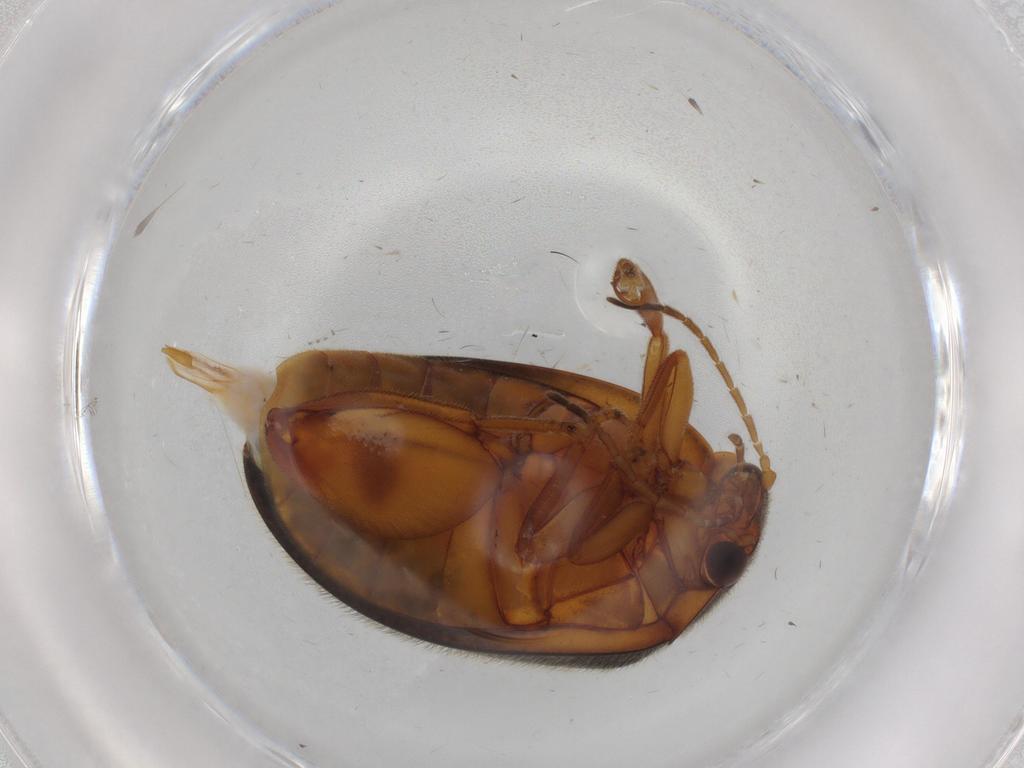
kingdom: Animalia
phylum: Arthropoda
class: Insecta
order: Coleoptera
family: Scirtidae
